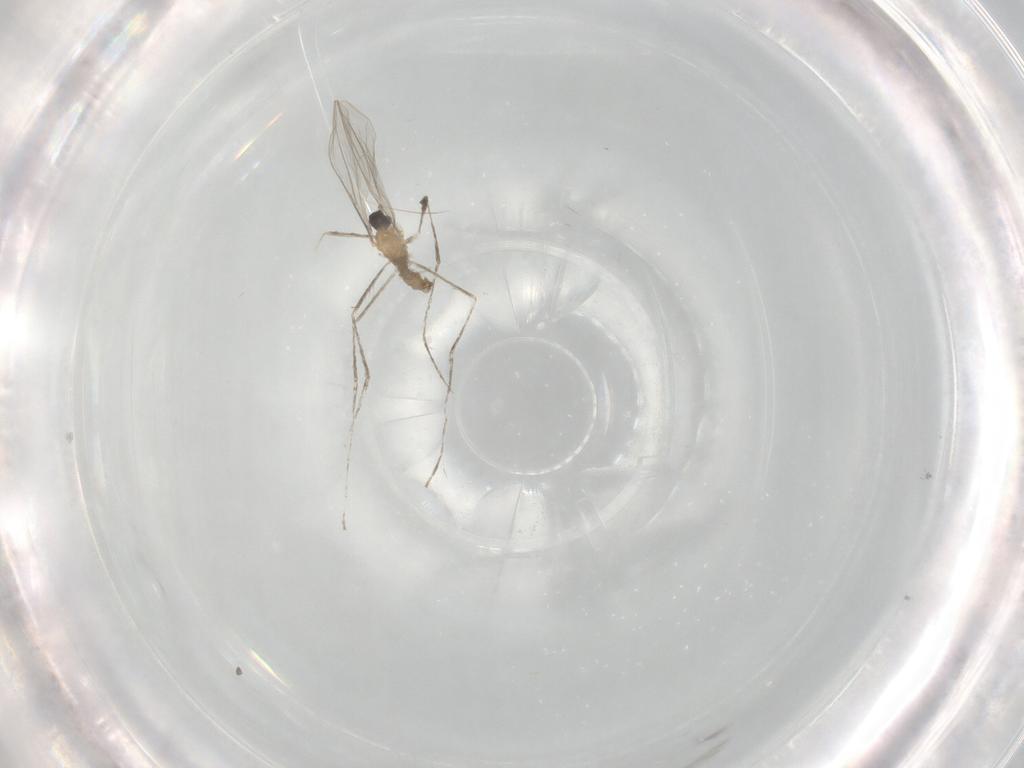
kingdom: Animalia
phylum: Arthropoda
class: Insecta
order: Diptera
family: Cecidomyiidae
